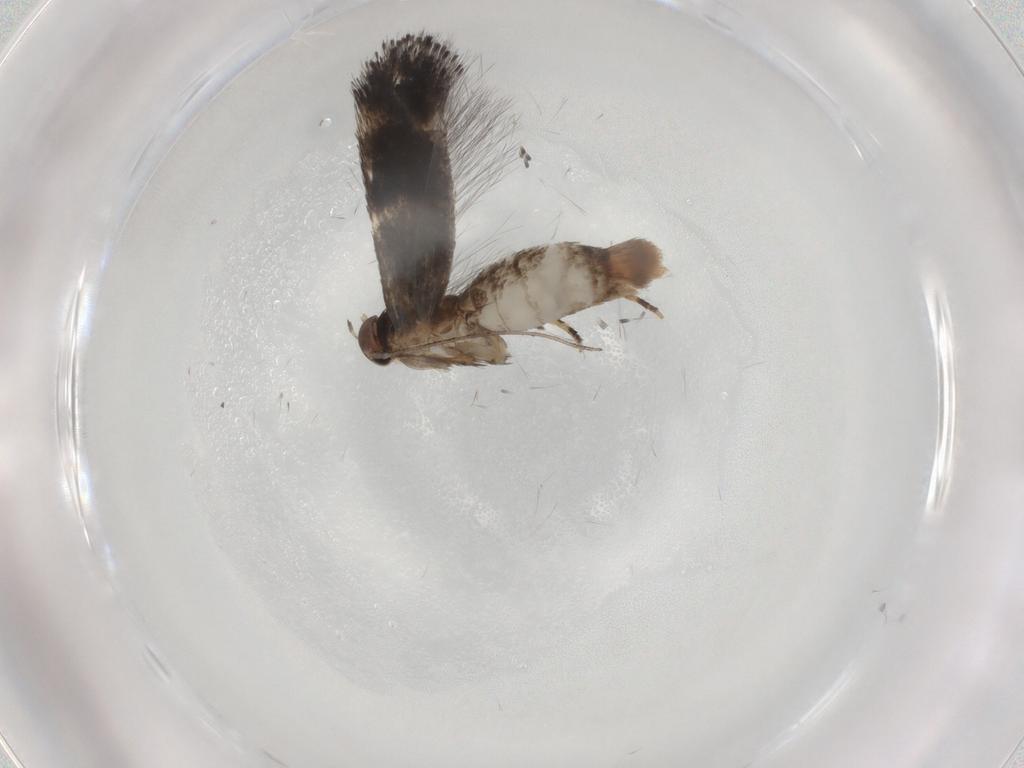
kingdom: Animalia
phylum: Arthropoda
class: Insecta
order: Lepidoptera
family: Elachistidae
